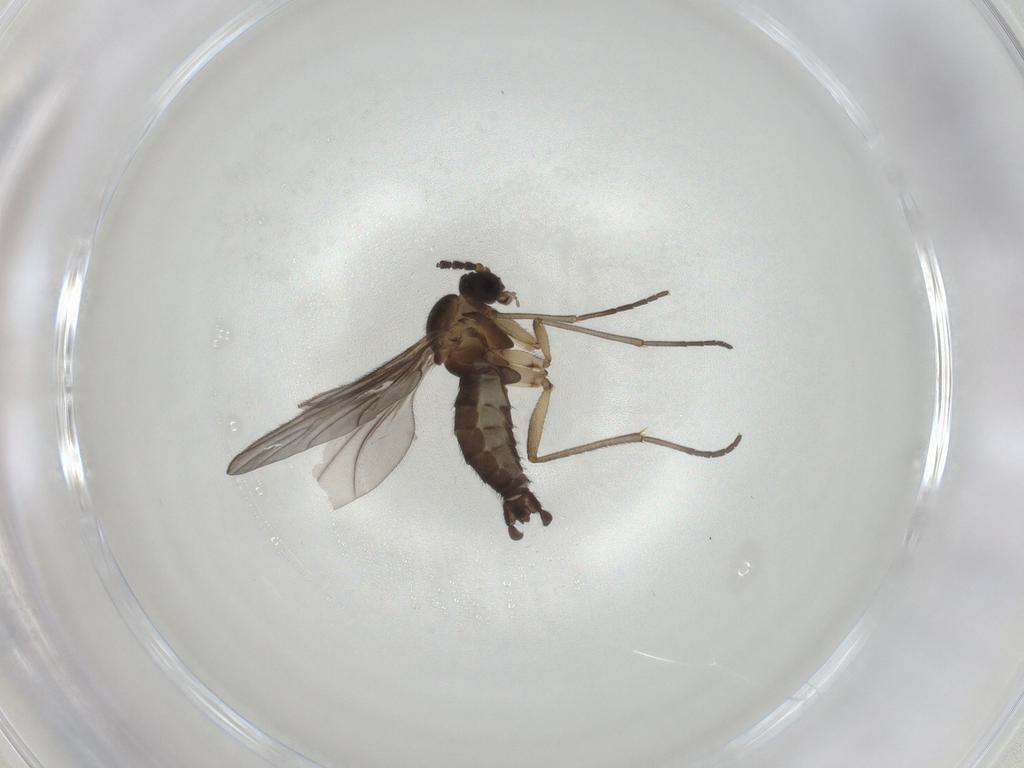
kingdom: Animalia
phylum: Arthropoda
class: Insecta
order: Diptera
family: Sciaridae
